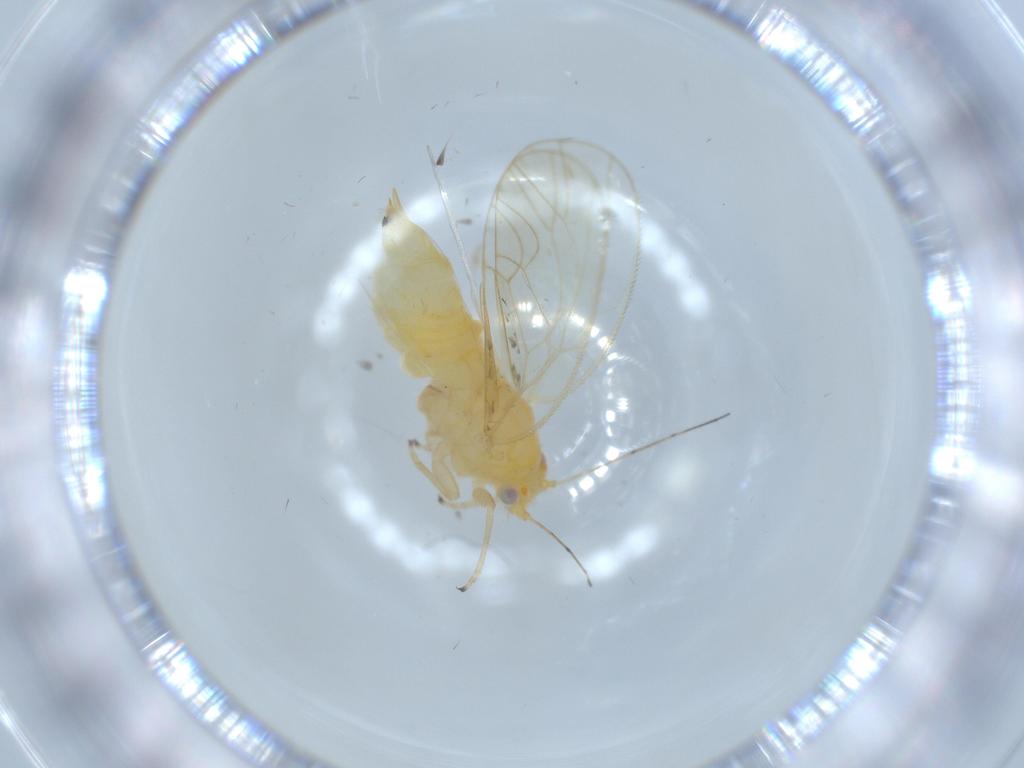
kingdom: Animalia
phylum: Arthropoda
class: Insecta
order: Hemiptera
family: Psyllidae
